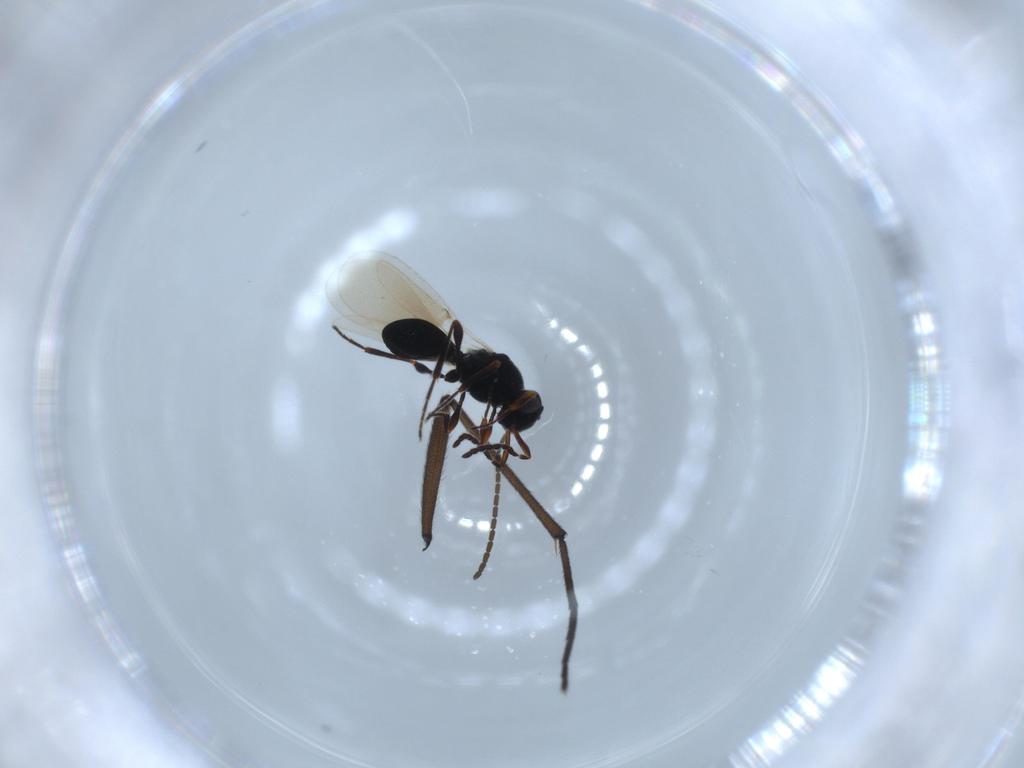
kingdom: Animalia
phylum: Arthropoda
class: Insecta
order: Hymenoptera
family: Platygastridae
